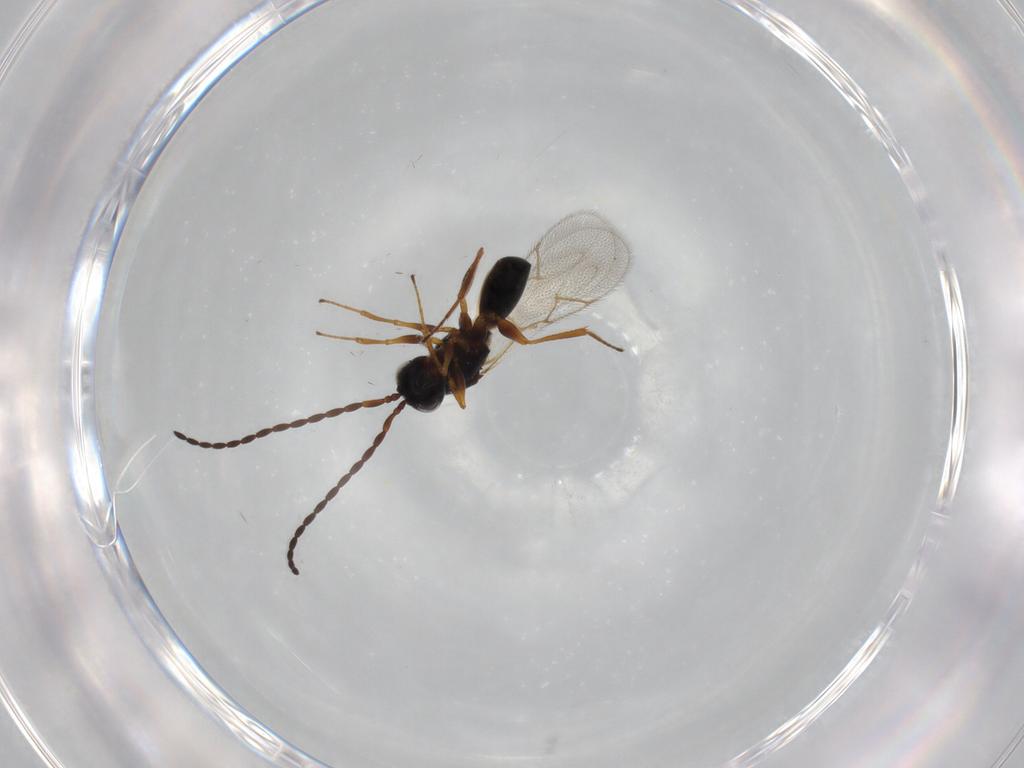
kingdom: Animalia
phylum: Arthropoda
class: Insecta
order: Hymenoptera
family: Figitidae
